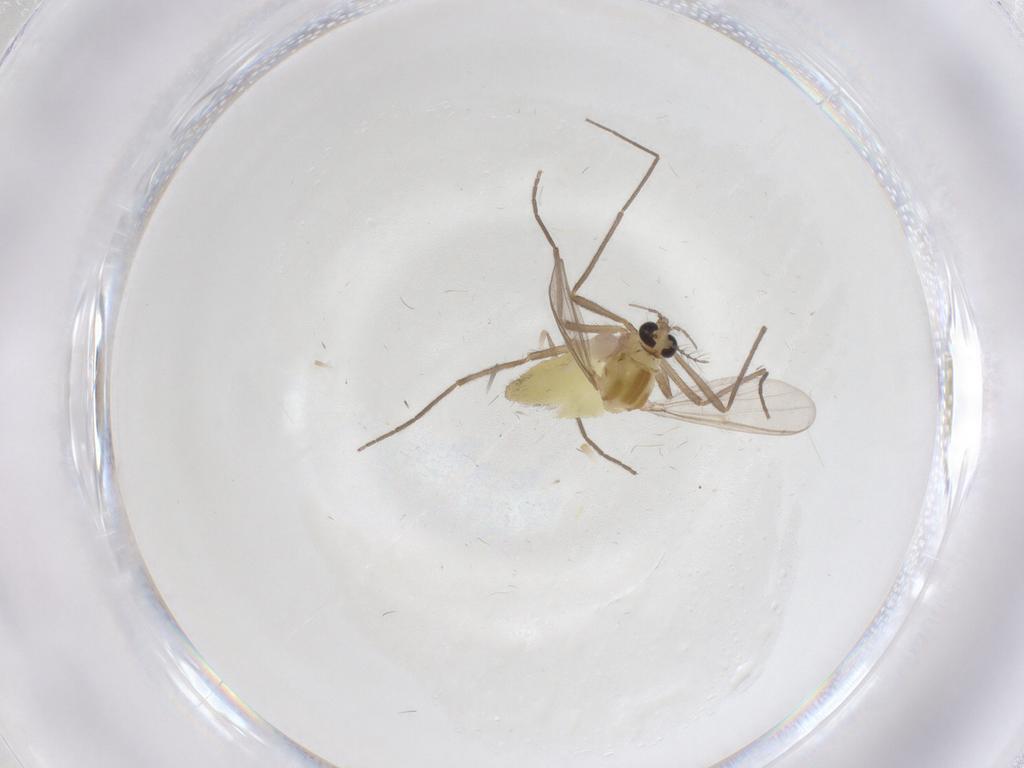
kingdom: Animalia
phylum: Arthropoda
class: Insecta
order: Diptera
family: Chironomidae
